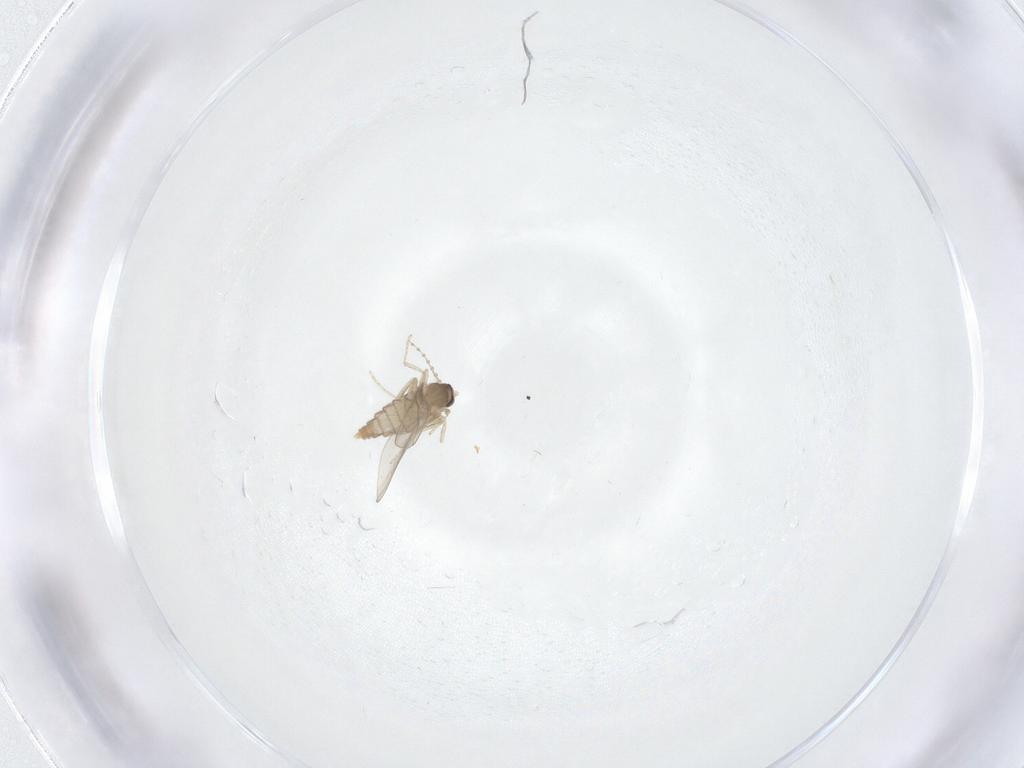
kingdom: Animalia
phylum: Arthropoda
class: Insecta
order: Diptera
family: Cecidomyiidae
